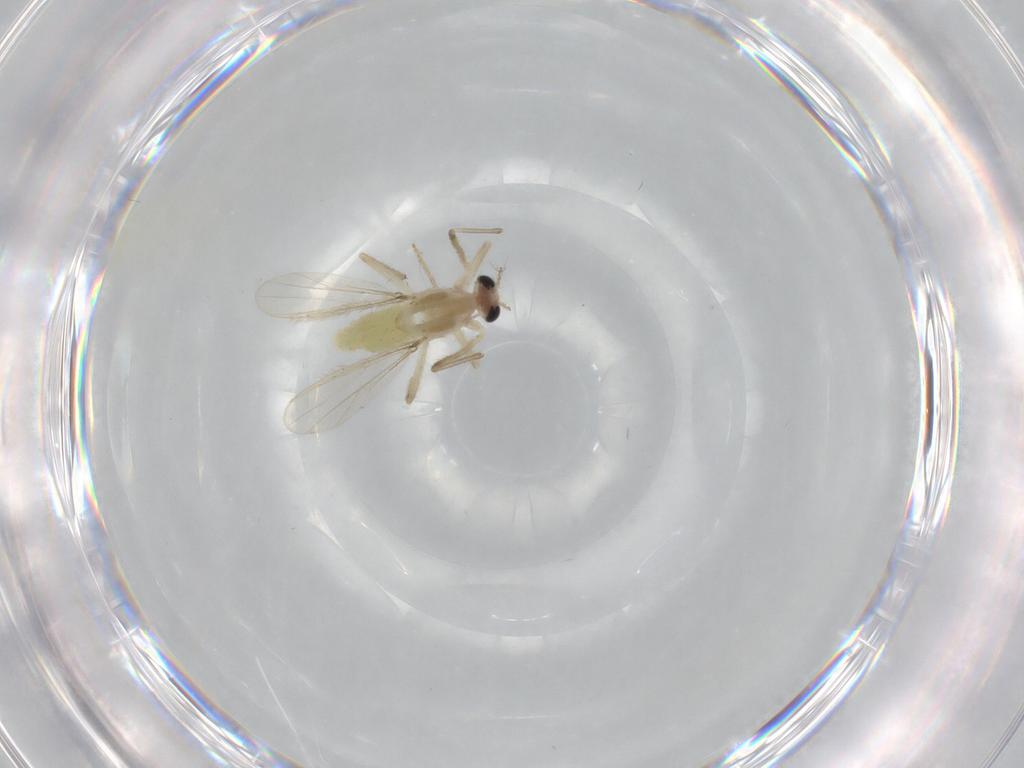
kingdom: Animalia
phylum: Arthropoda
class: Insecta
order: Diptera
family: Chironomidae
